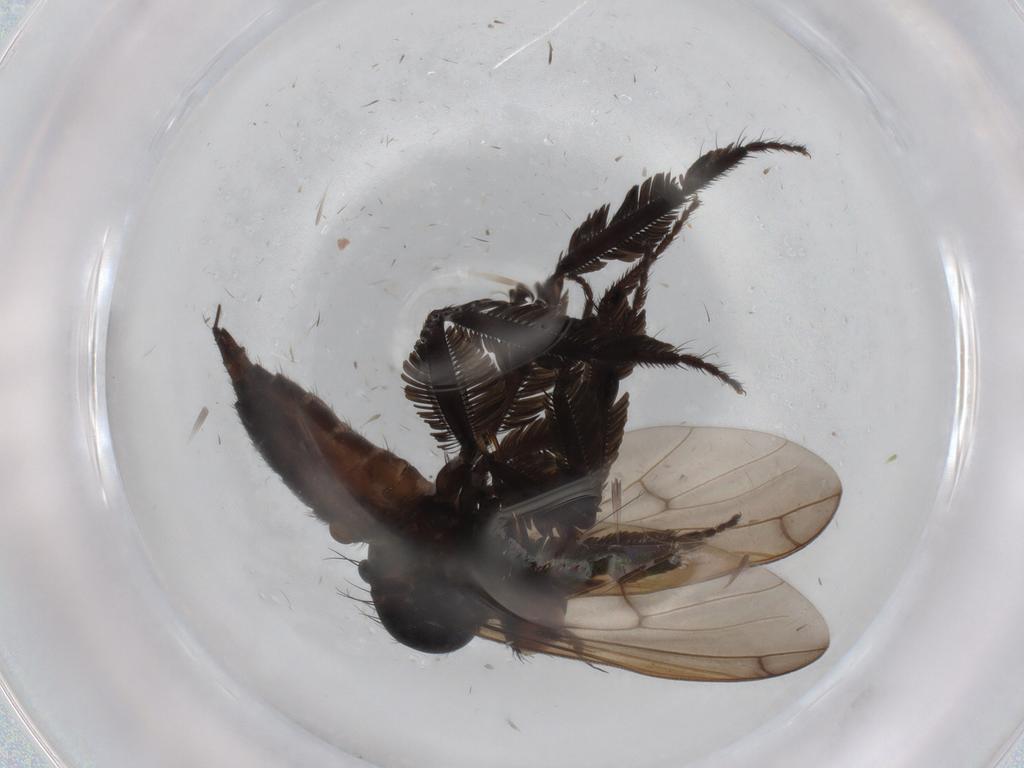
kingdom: Animalia
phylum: Arthropoda
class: Insecta
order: Diptera
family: Empididae
